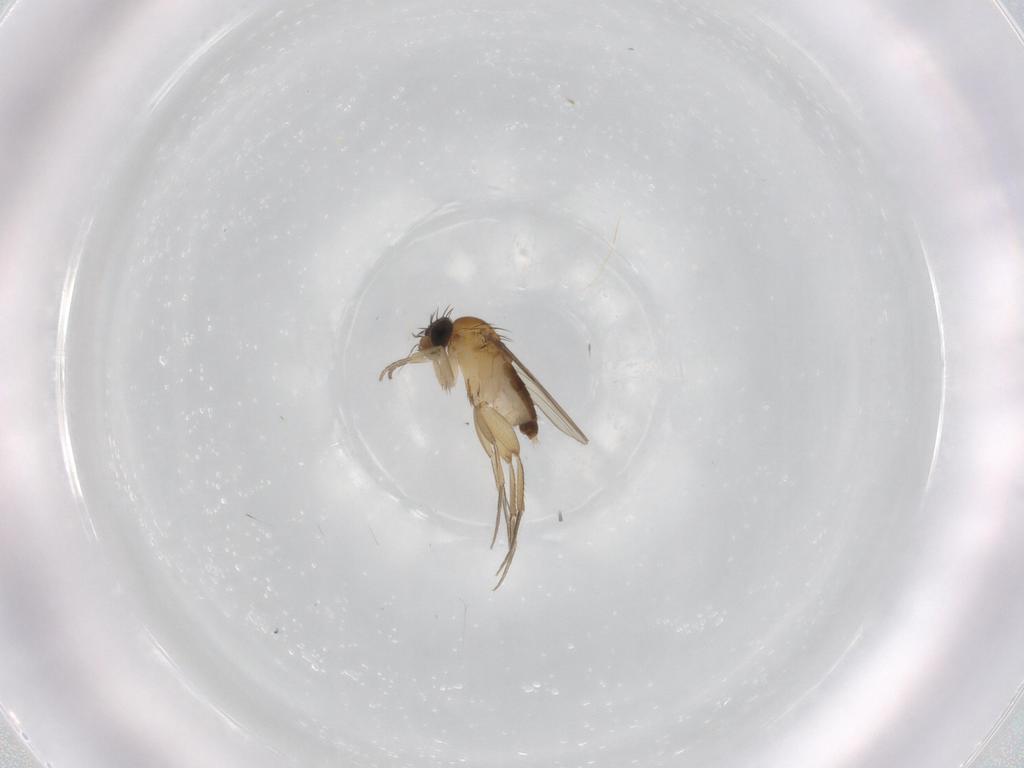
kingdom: Animalia
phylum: Arthropoda
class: Insecta
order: Diptera
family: Phoridae
